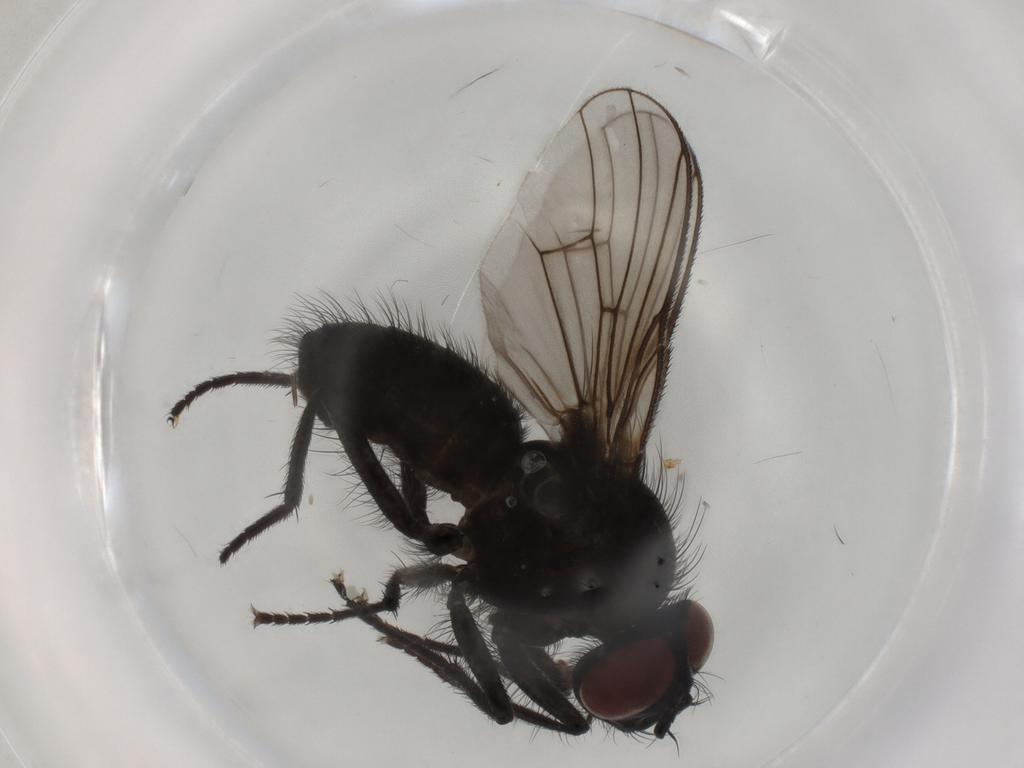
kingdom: Animalia
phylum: Arthropoda
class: Insecta
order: Diptera
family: Muscidae
